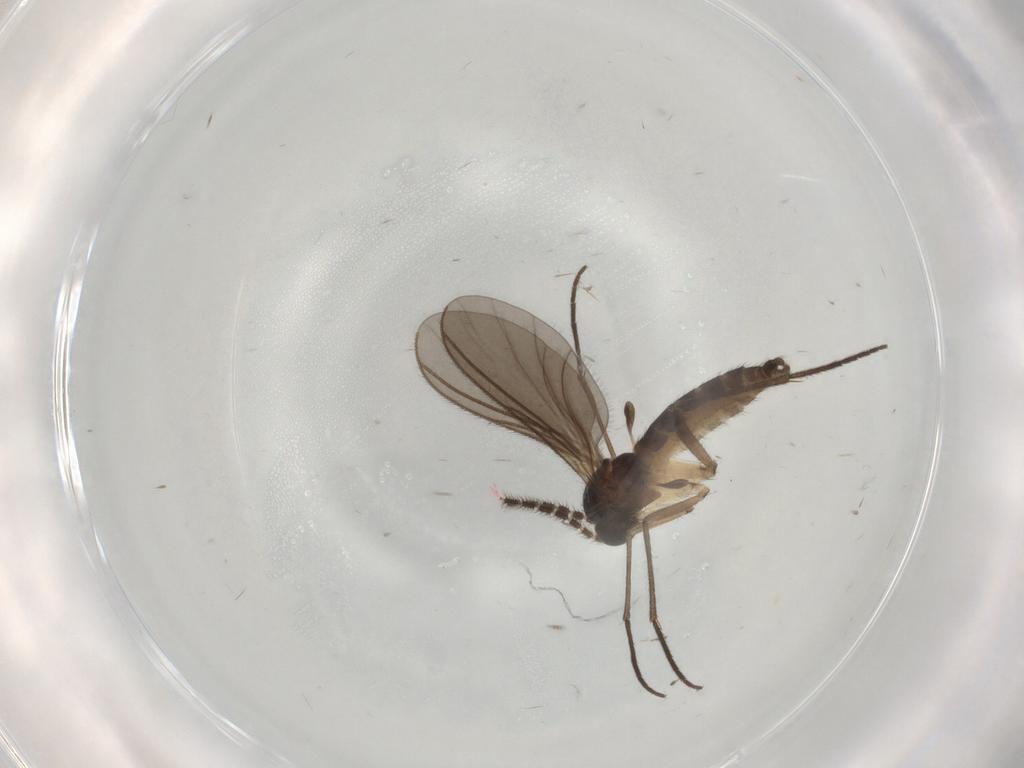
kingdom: Animalia
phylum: Arthropoda
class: Insecta
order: Diptera
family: Sciaridae
